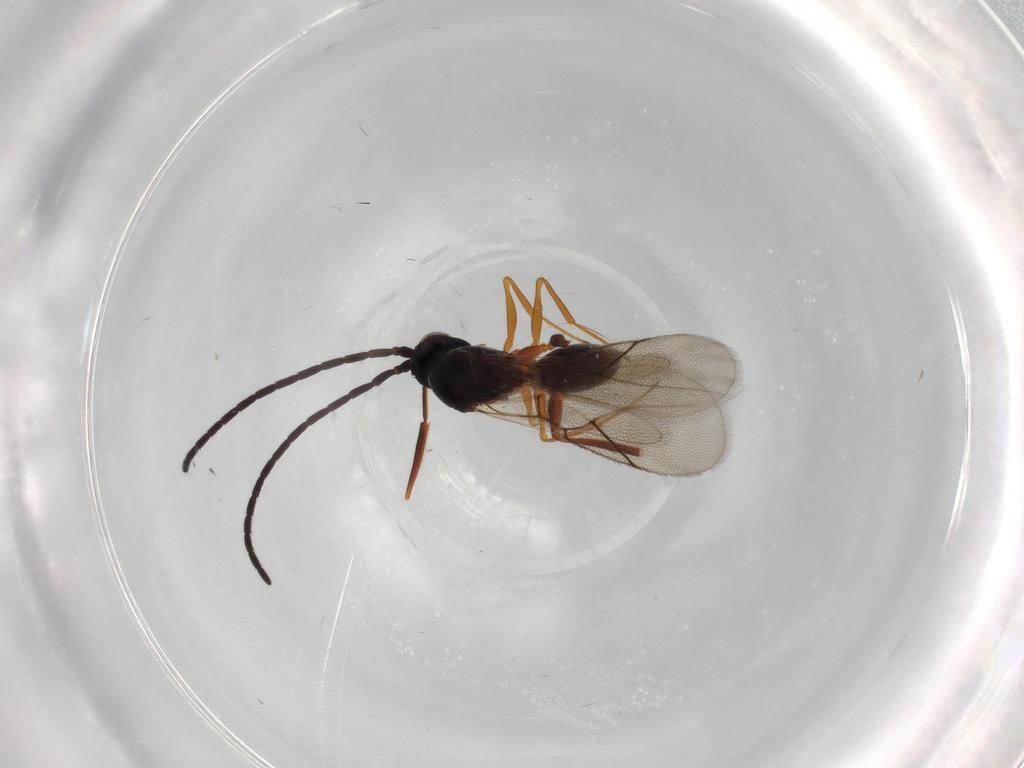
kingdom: Animalia
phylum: Arthropoda
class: Insecta
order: Hymenoptera
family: Figitidae
